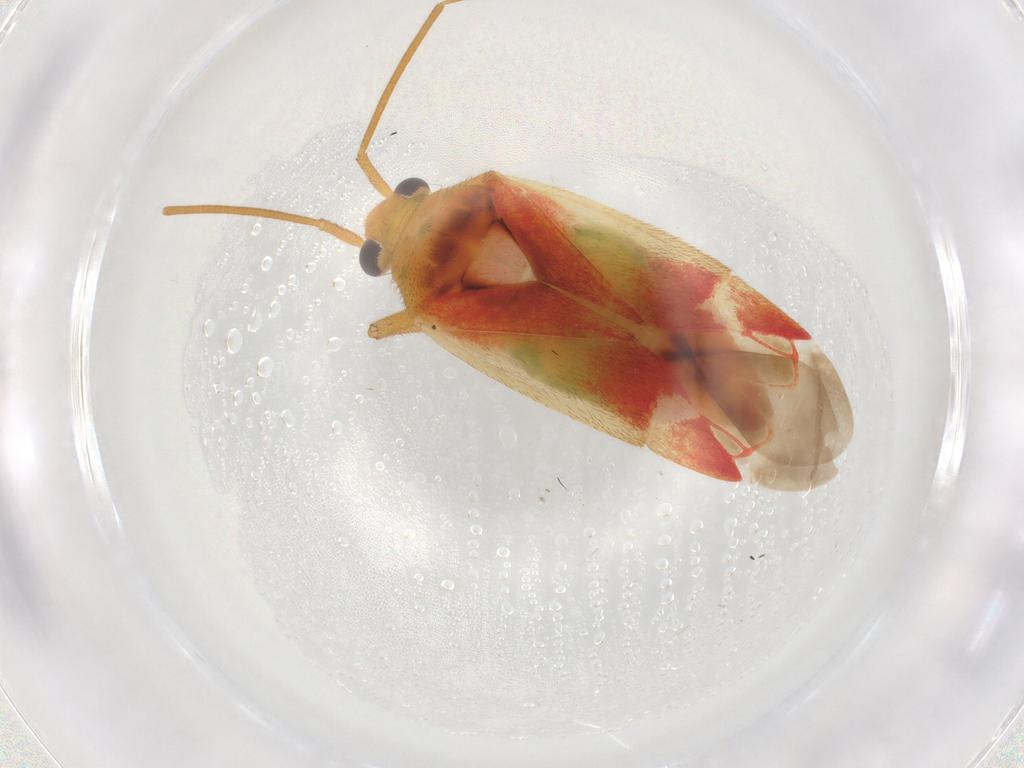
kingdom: Animalia
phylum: Arthropoda
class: Insecta
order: Hemiptera
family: Miridae
